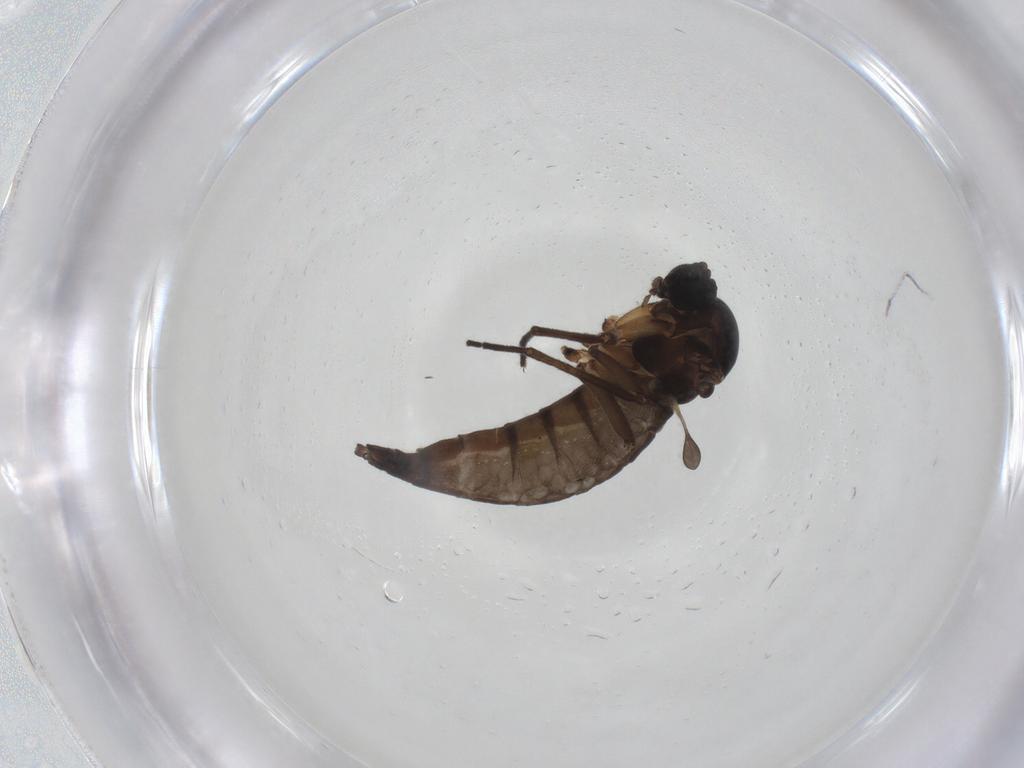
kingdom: Animalia
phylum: Arthropoda
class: Insecta
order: Diptera
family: Sciaridae
